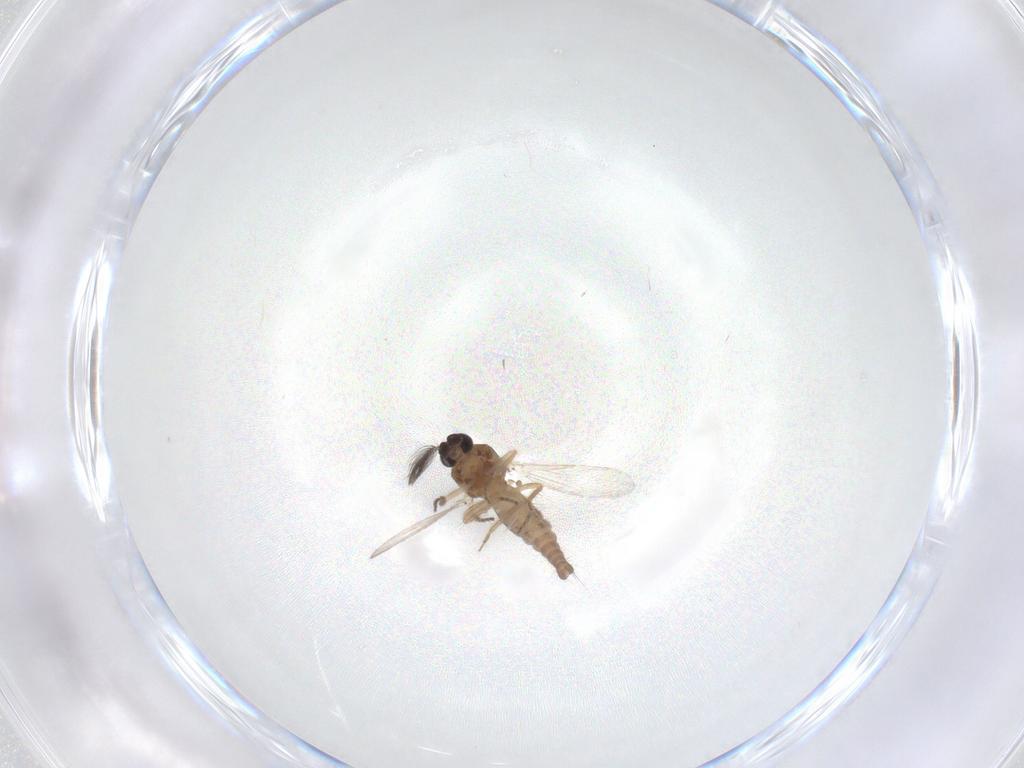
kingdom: Animalia
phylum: Arthropoda
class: Insecta
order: Diptera
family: Ceratopogonidae
